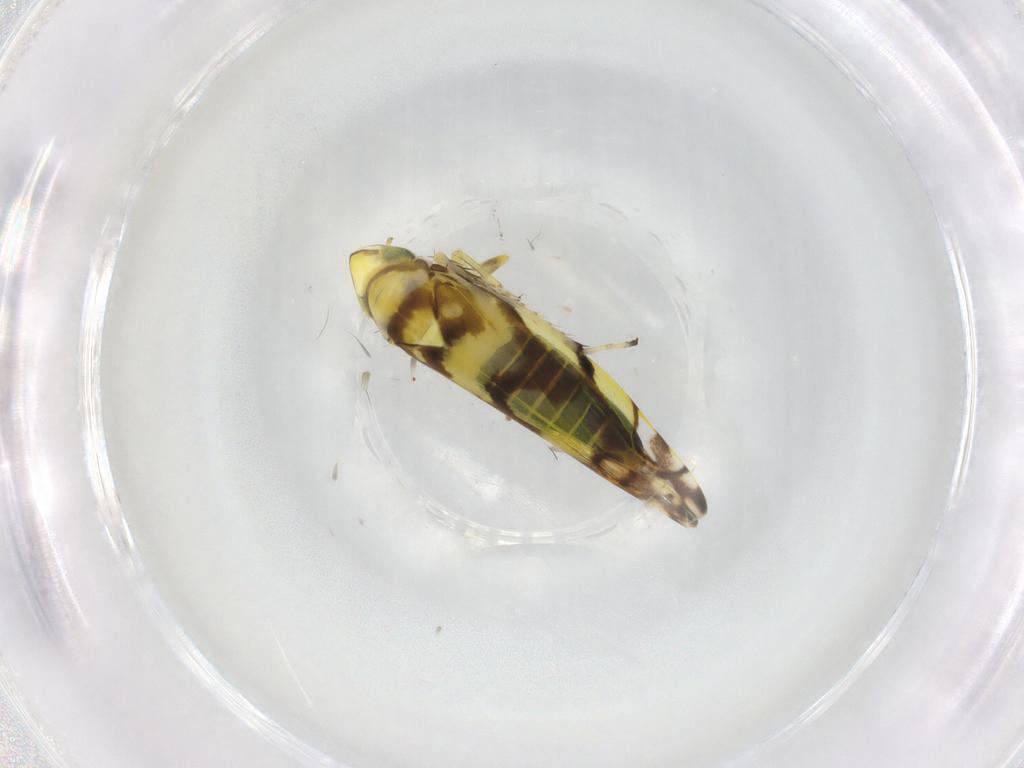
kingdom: Animalia
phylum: Arthropoda
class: Insecta
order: Hemiptera
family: Cicadellidae
